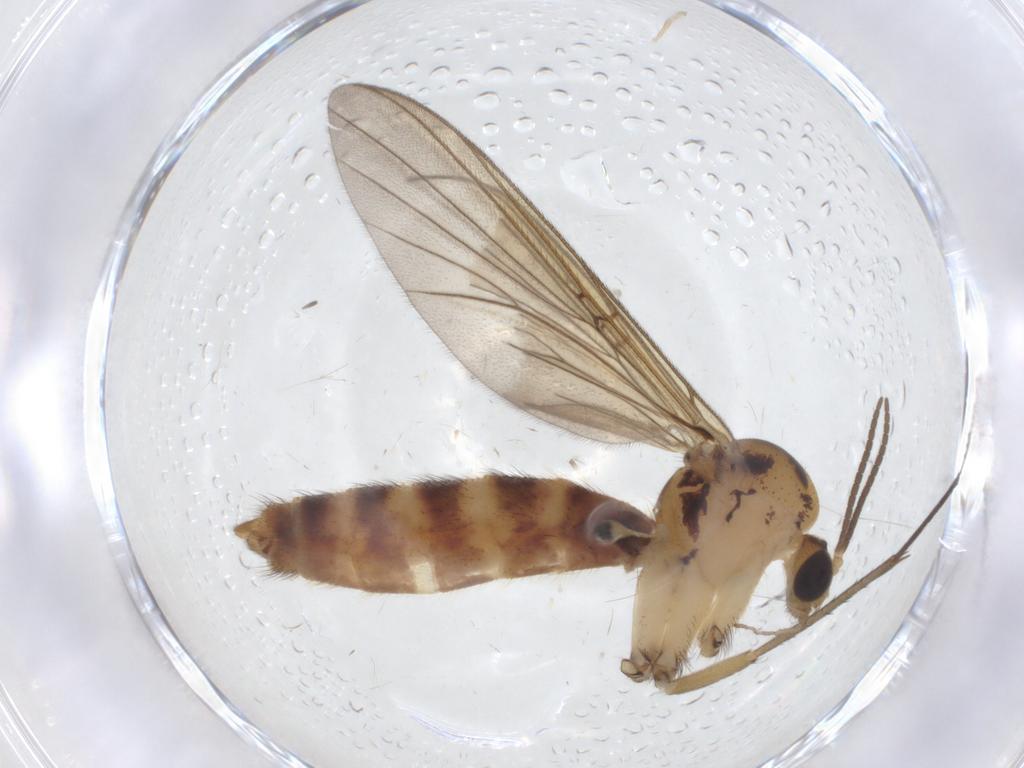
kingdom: Animalia
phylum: Arthropoda
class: Insecta
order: Diptera
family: Mycetophilidae
